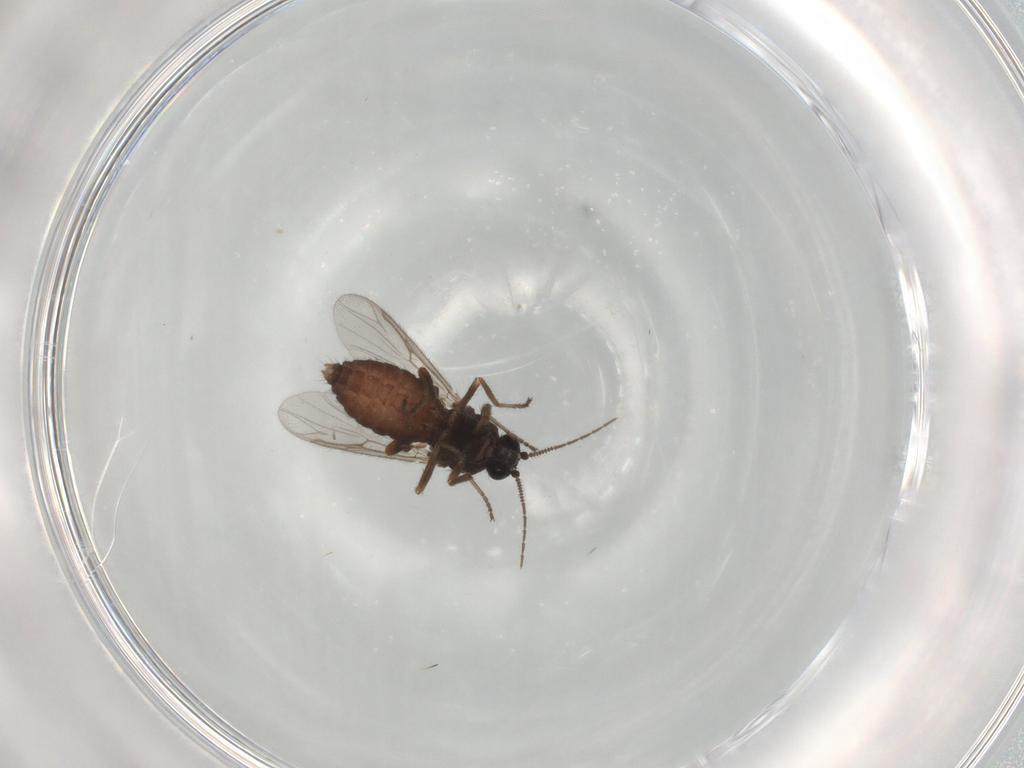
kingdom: Animalia
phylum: Arthropoda
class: Insecta
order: Diptera
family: Ceratopogonidae
